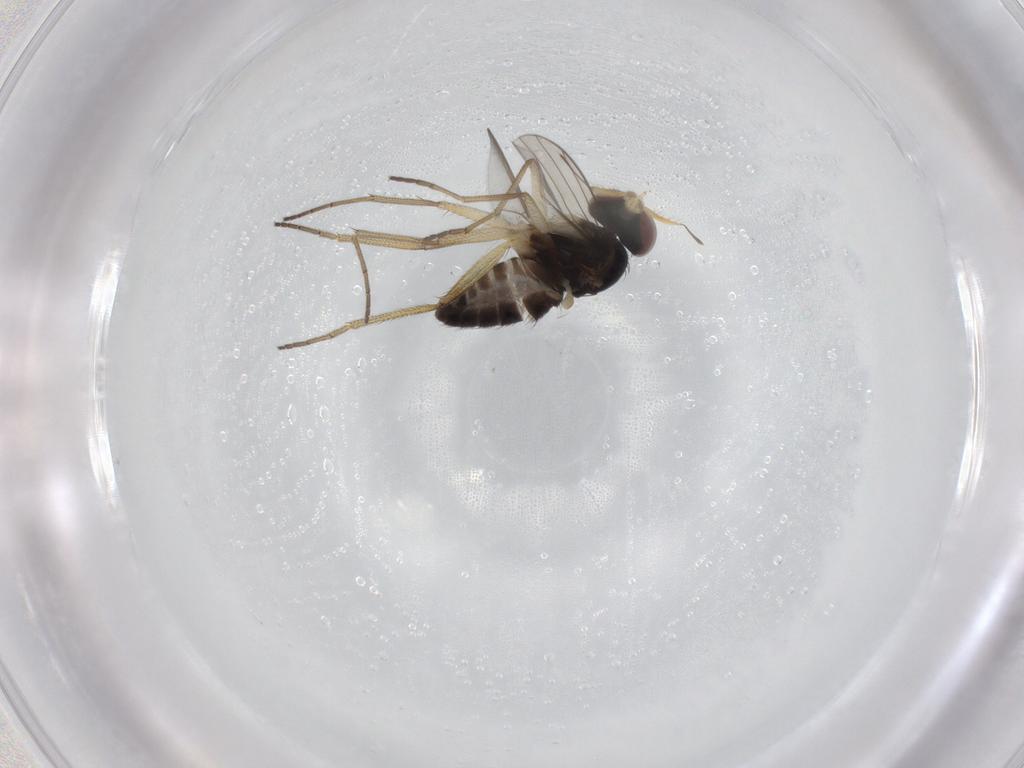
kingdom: Animalia
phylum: Arthropoda
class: Insecta
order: Diptera
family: Dolichopodidae
